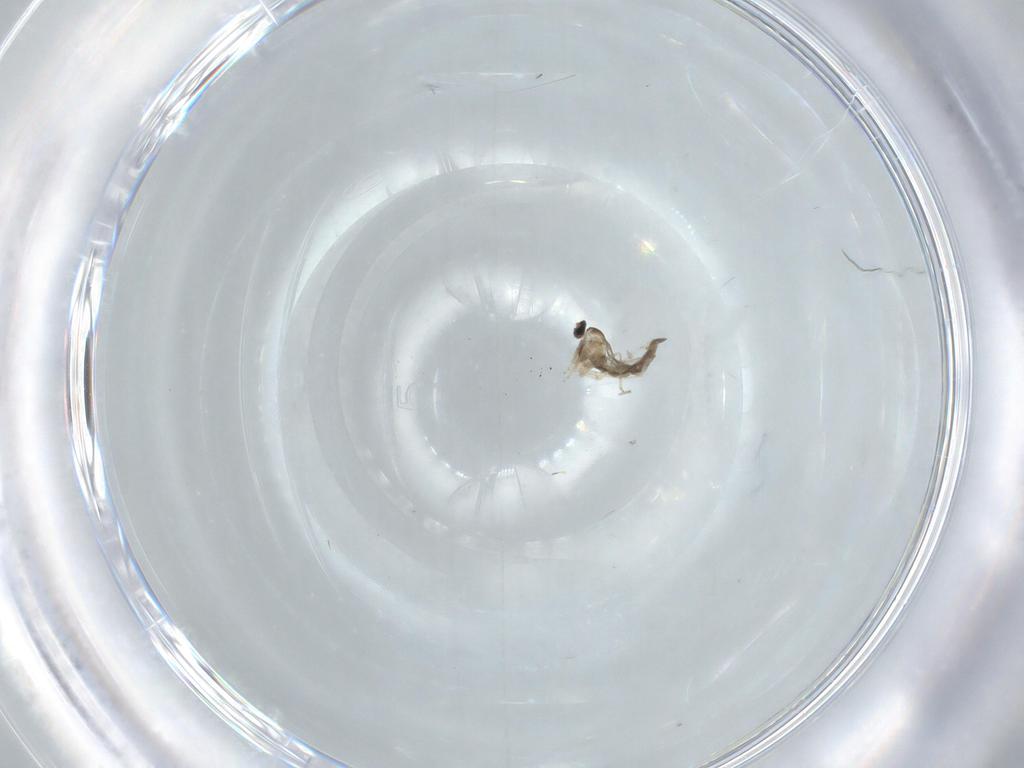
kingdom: Animalia
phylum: Arthropoda
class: Insecta
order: Diptera
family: Cecidomyiidae
